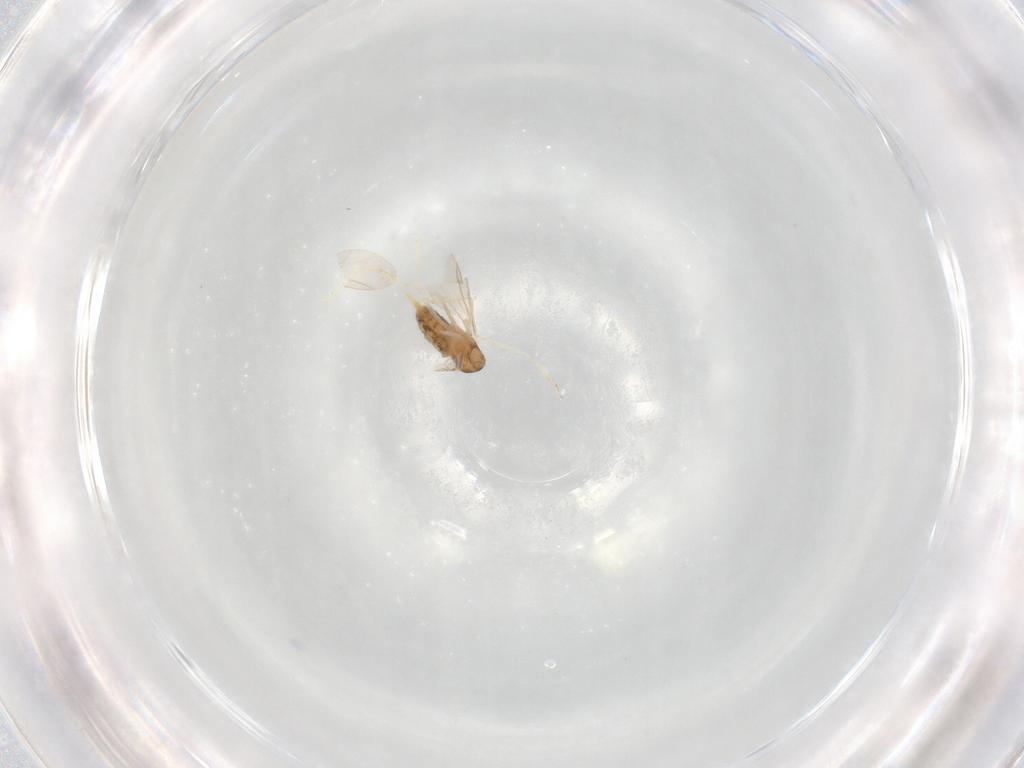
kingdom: Animalia
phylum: Arthropoda
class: Insecta
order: Diptera
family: Cecidomyiidae
